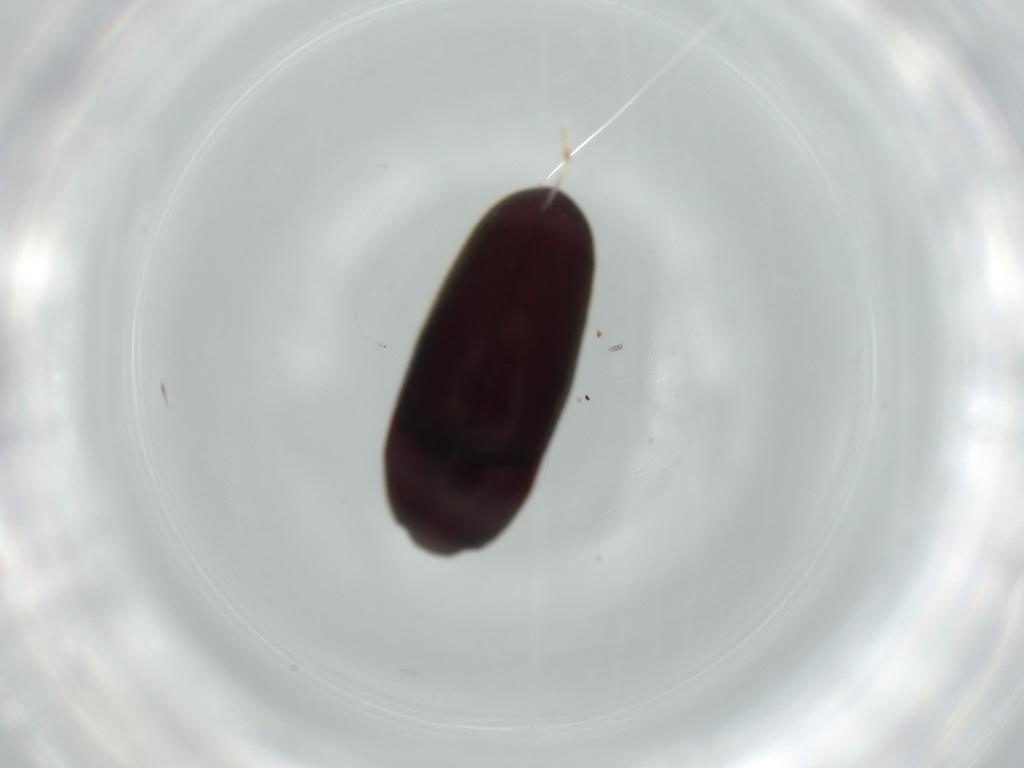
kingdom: Animalia
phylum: Arthropoda
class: Insecta
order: Coleoptera
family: Throscidae
